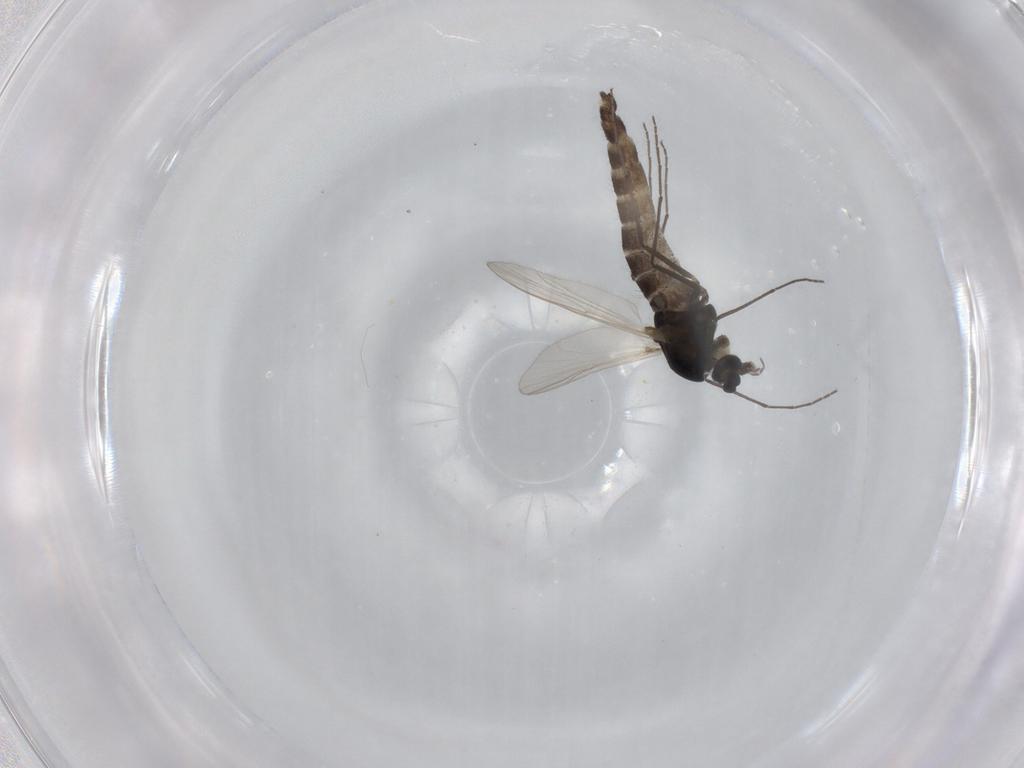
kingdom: Animalia
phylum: Arthropoda
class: Insecta
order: Diptera
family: Scathophagidae
